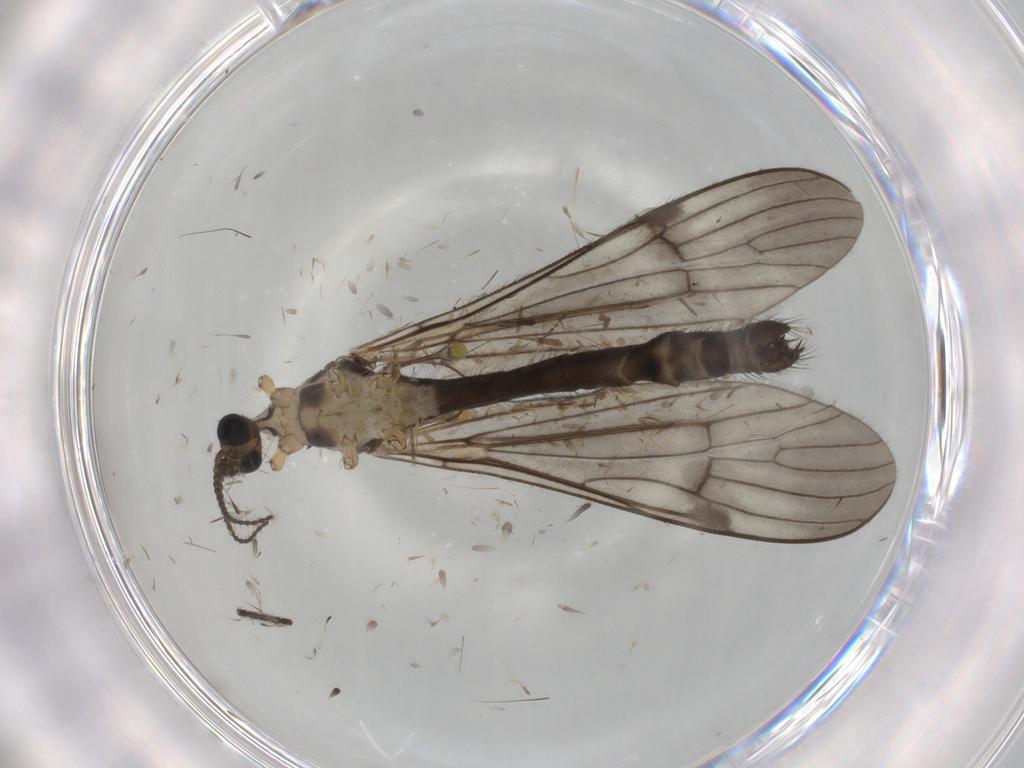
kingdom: Animalia
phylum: Arthropoda
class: Insecta
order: Diptera
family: Limoniidae
